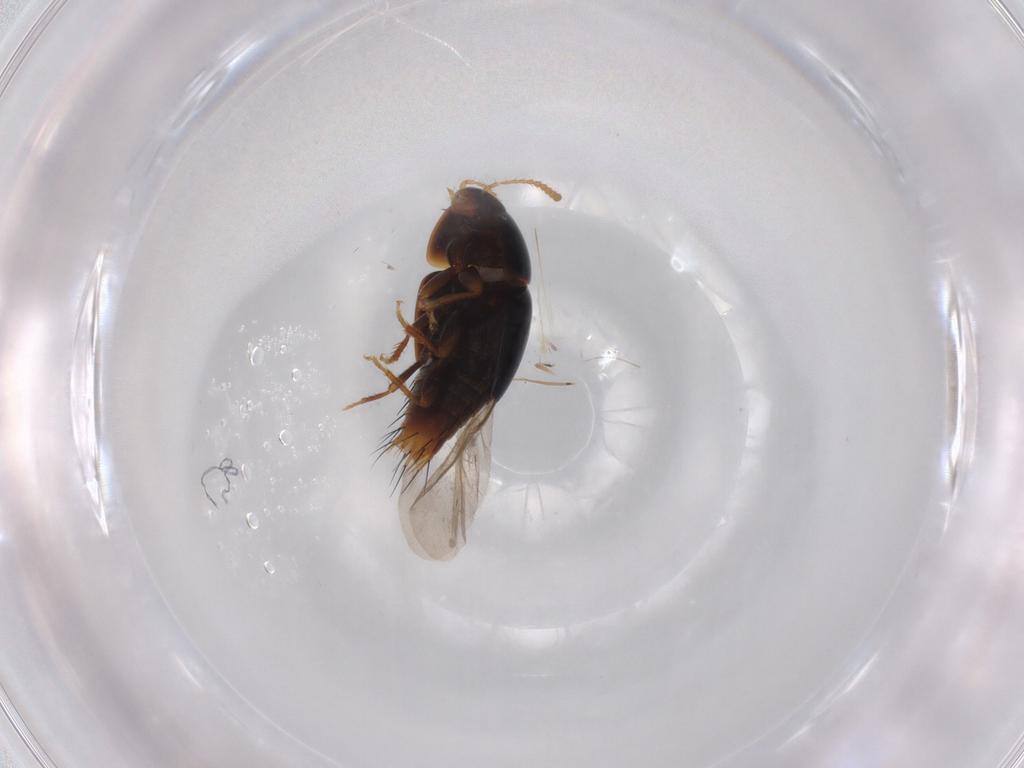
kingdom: Animalia
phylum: Arthropoda
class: Insecta
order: Coleoptera
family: Staphylinidae
